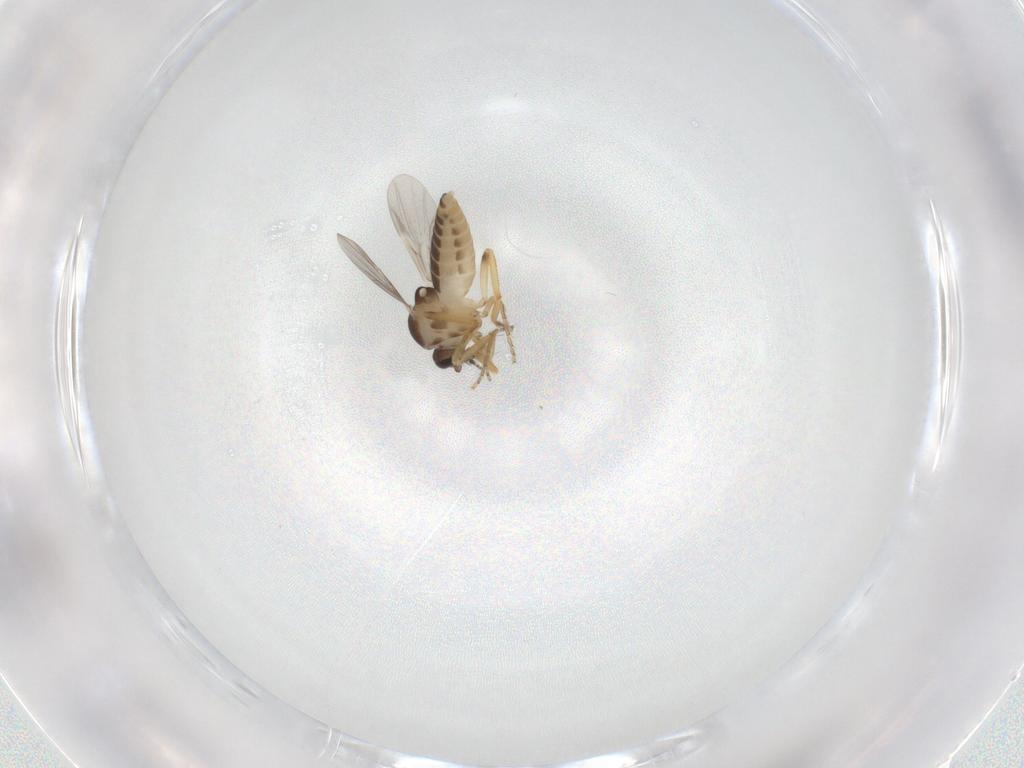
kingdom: Animalia
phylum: Arthropoda
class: Insecta
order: Diptera
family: Ceratopogonidae
